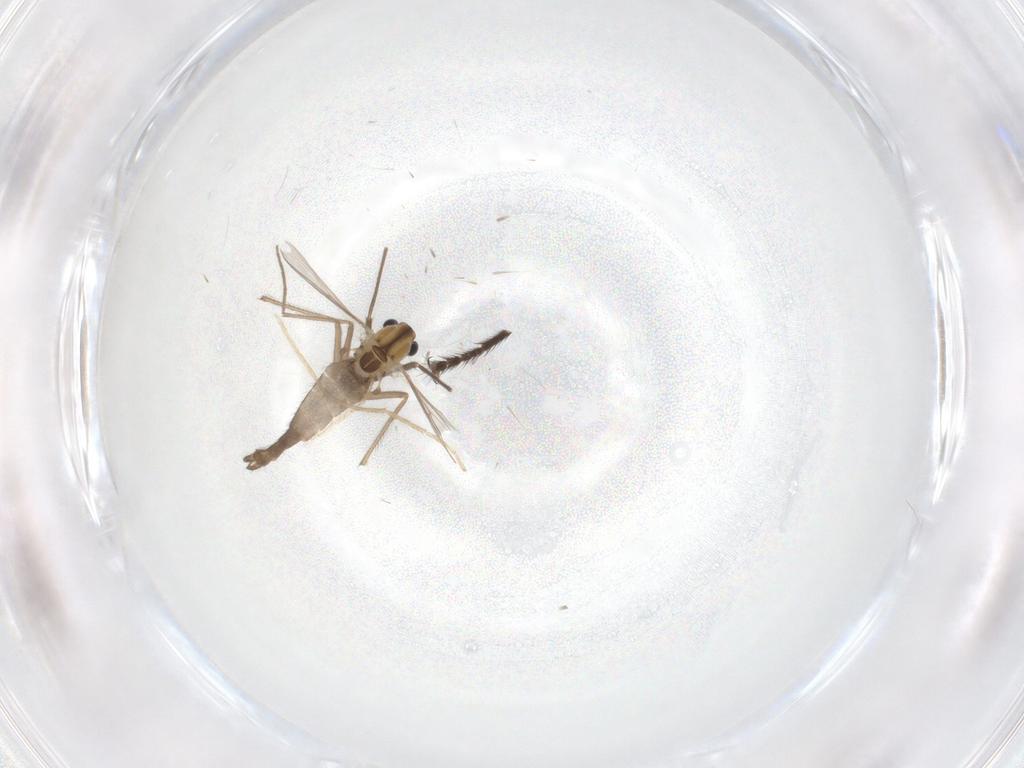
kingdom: Animalia
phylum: Arthropoda
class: Insecta
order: Diptera
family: Chironomidae
